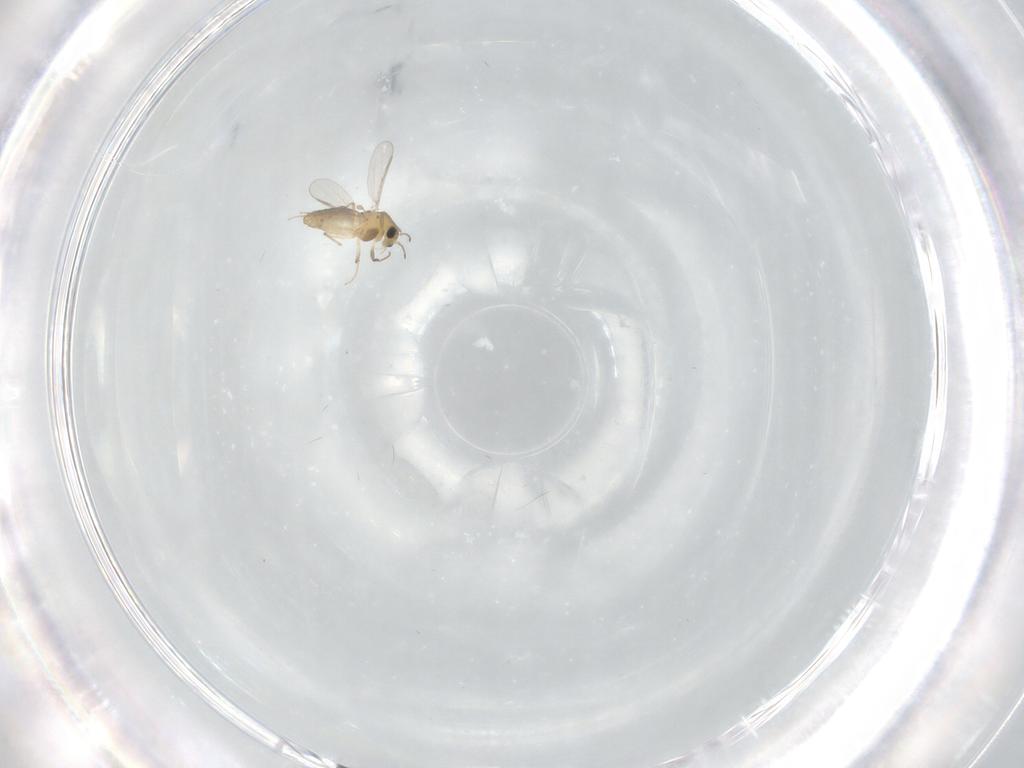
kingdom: Animalia
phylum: Arthropoda
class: Insecta
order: Diptera
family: Chironomidae
